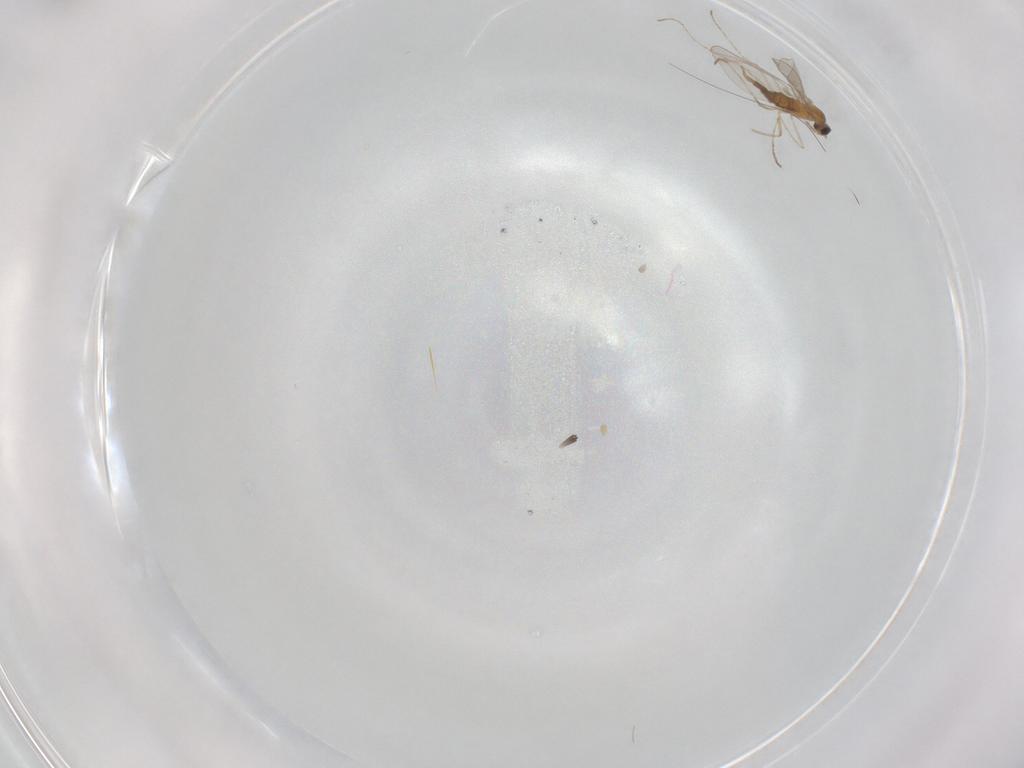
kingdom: Animalia
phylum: Arthropoda
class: Insecta
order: Diptera
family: Cecidomyiidae
